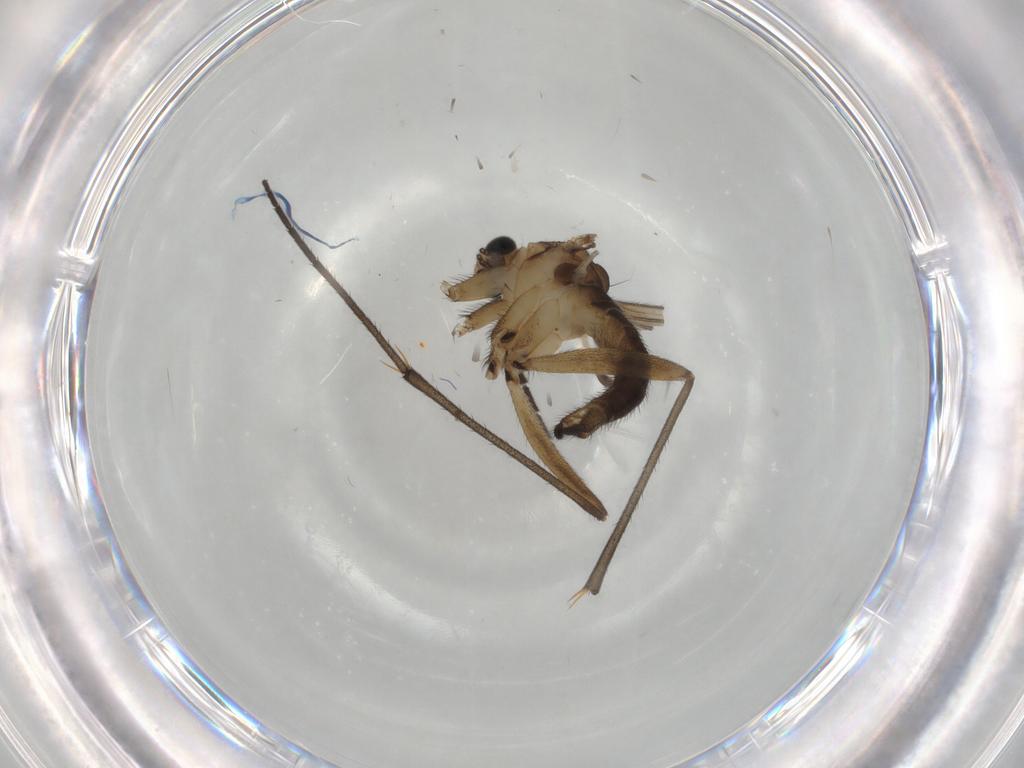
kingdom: Animalia
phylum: Arthropoda
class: Insecta
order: Diptera
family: Sciaridae
